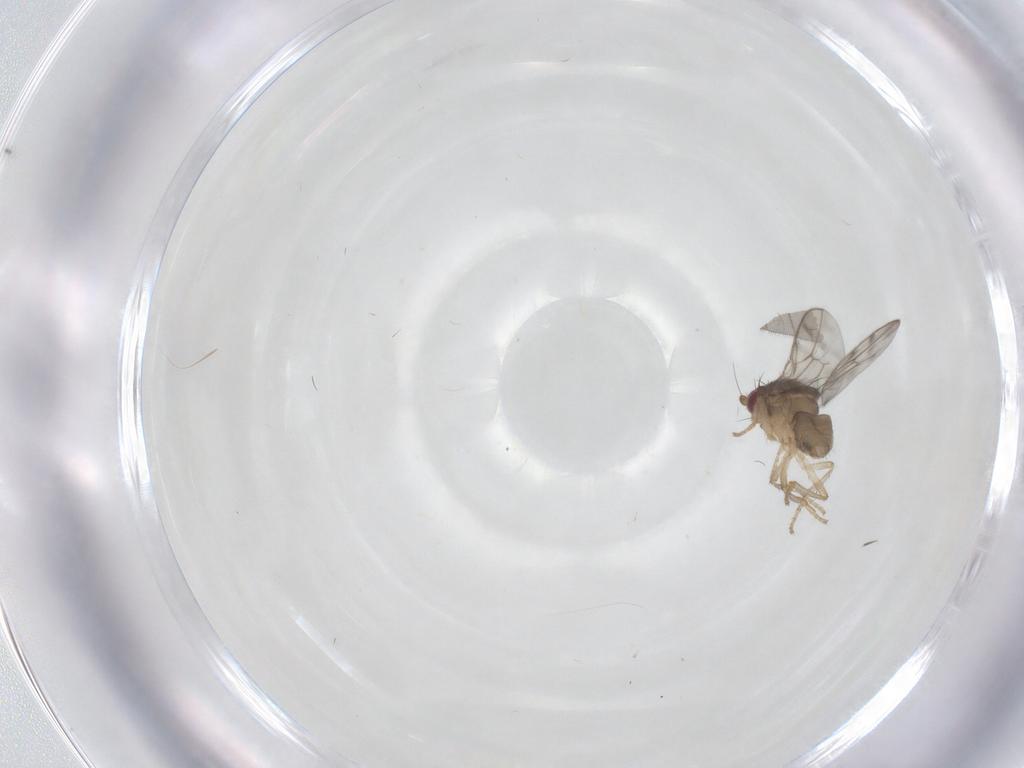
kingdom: Animalia
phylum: Arthropoda
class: Insecta
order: Diptera
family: Sphaeroceridae
